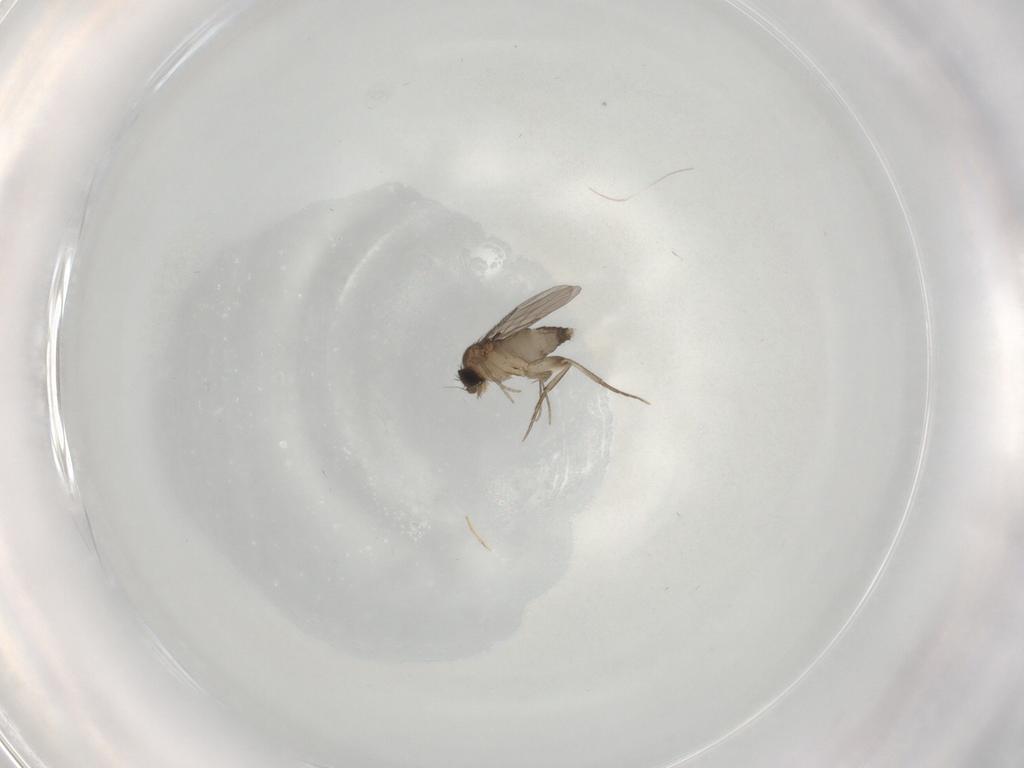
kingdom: Animalia
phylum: Arthropoda
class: Insecta
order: Diptera
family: Phoridae
